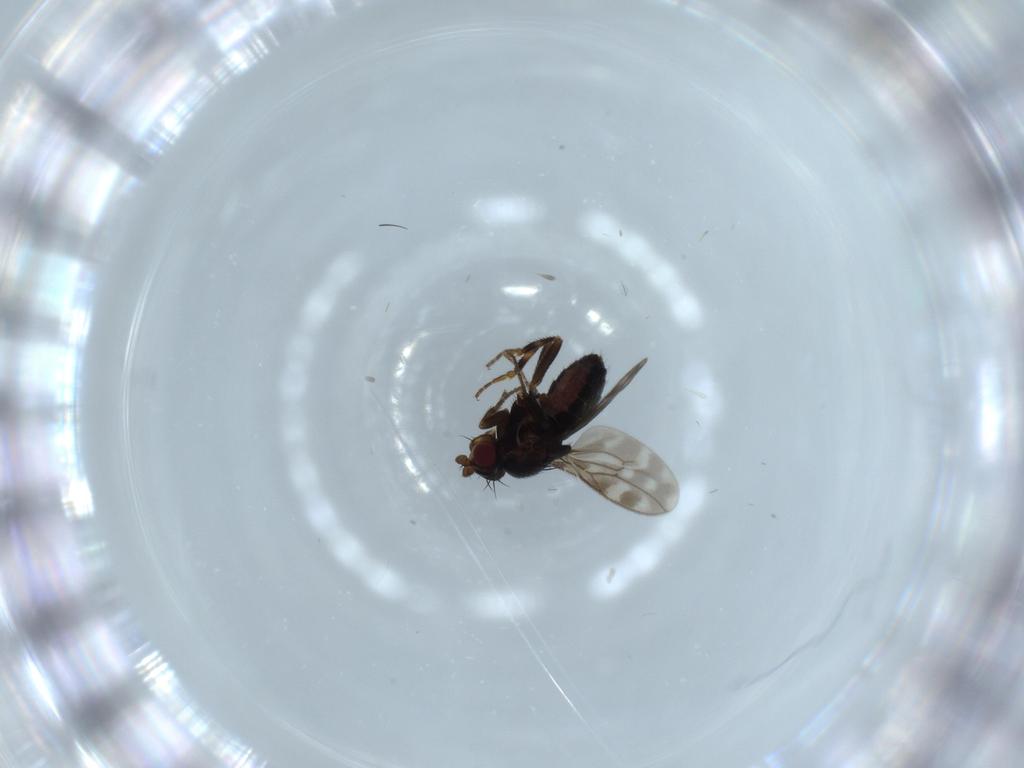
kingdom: Animalia
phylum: Arthropoda
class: Insecta
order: Diptera
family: Sphaeroceridae
